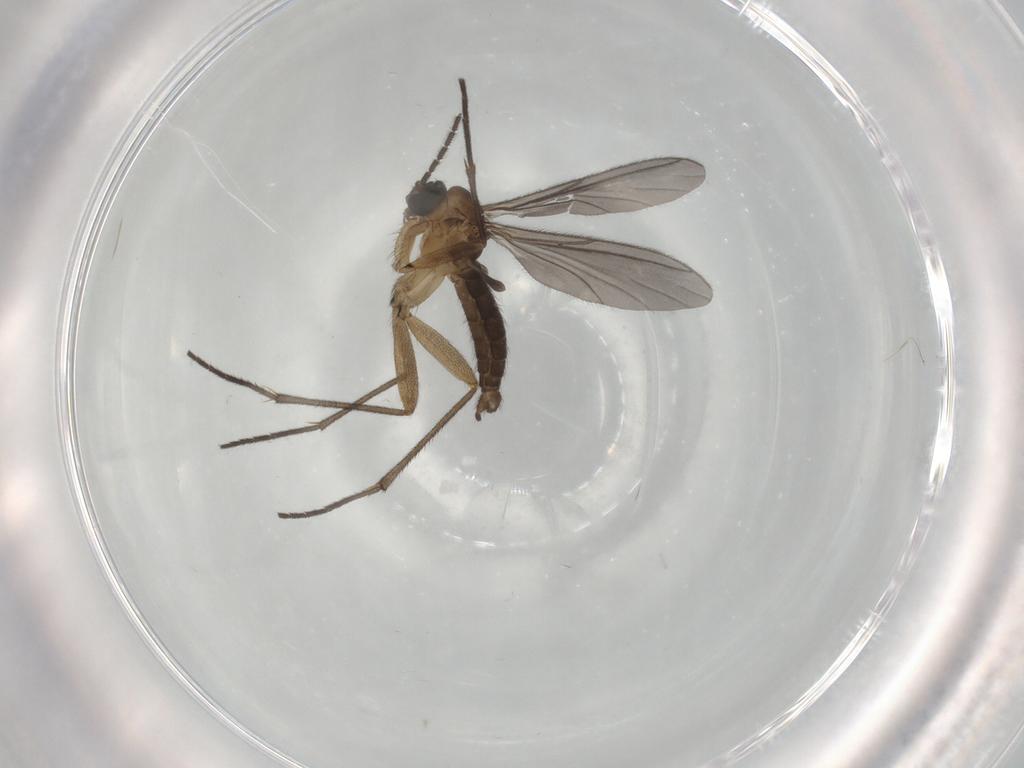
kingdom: Animalia
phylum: Arthropoda
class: Insecta
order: Diptera
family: Sciaridae
